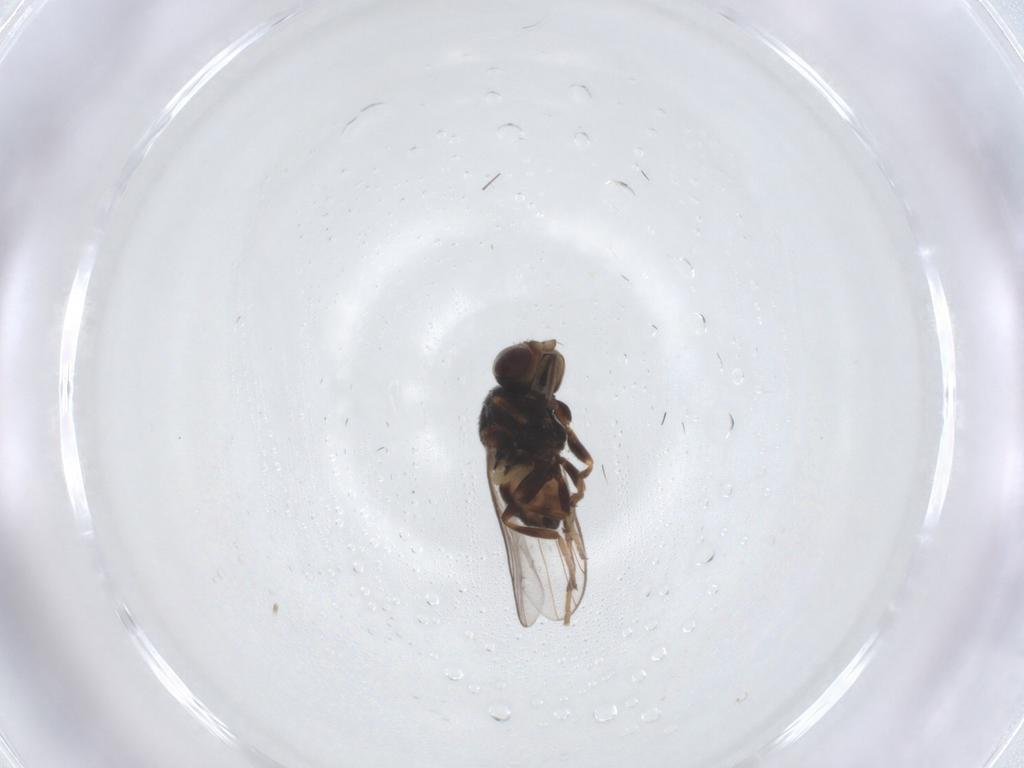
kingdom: Animalia
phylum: Arthropoda
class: Insecta
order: Diptera
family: Chloropidae
